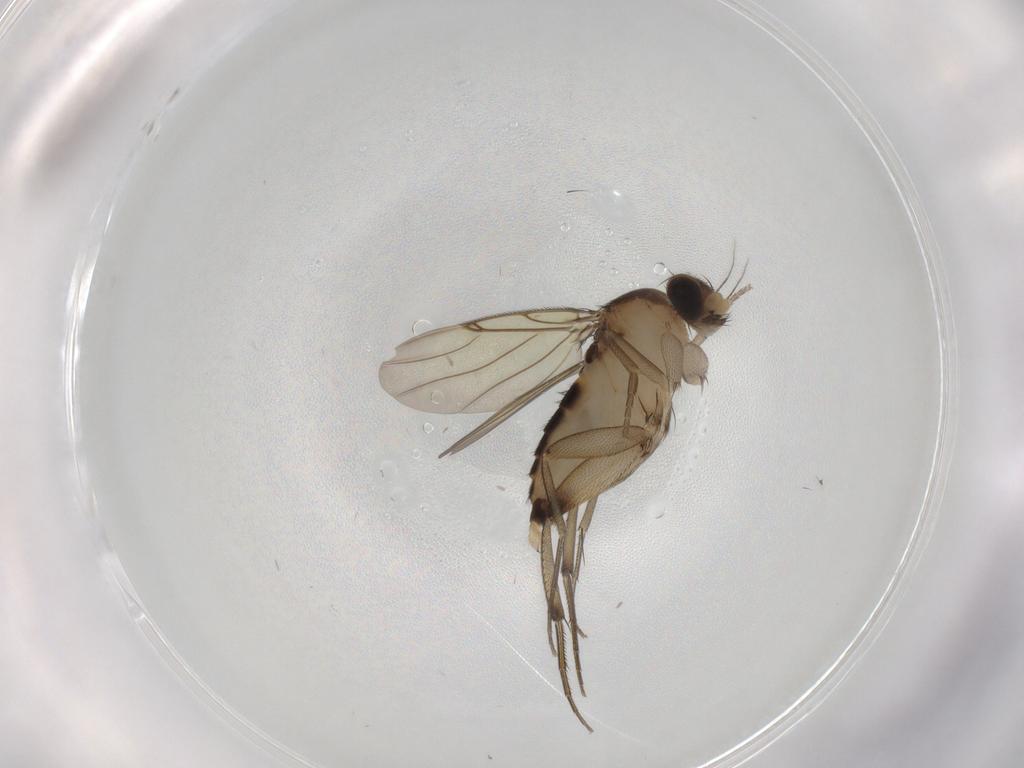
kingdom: Animalia
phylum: Arthropoda
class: Insecta
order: Diptera
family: Phoridae
